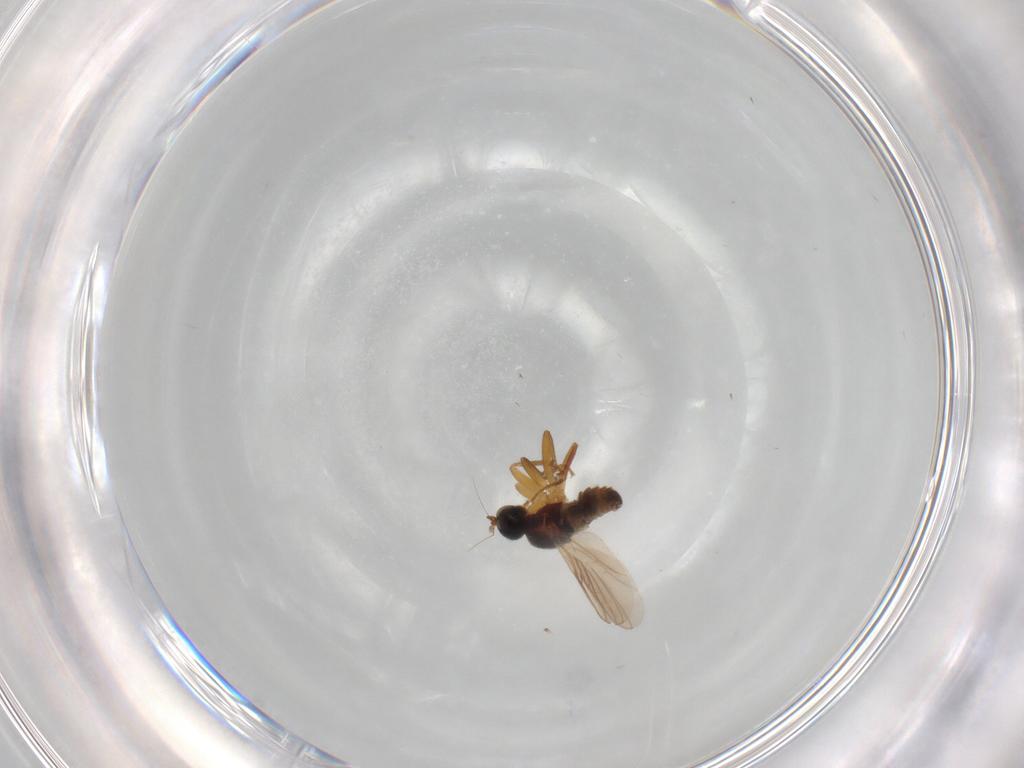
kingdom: Animalia
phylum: Arthropoda
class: Insecta
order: Diptera
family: Hybotidae
